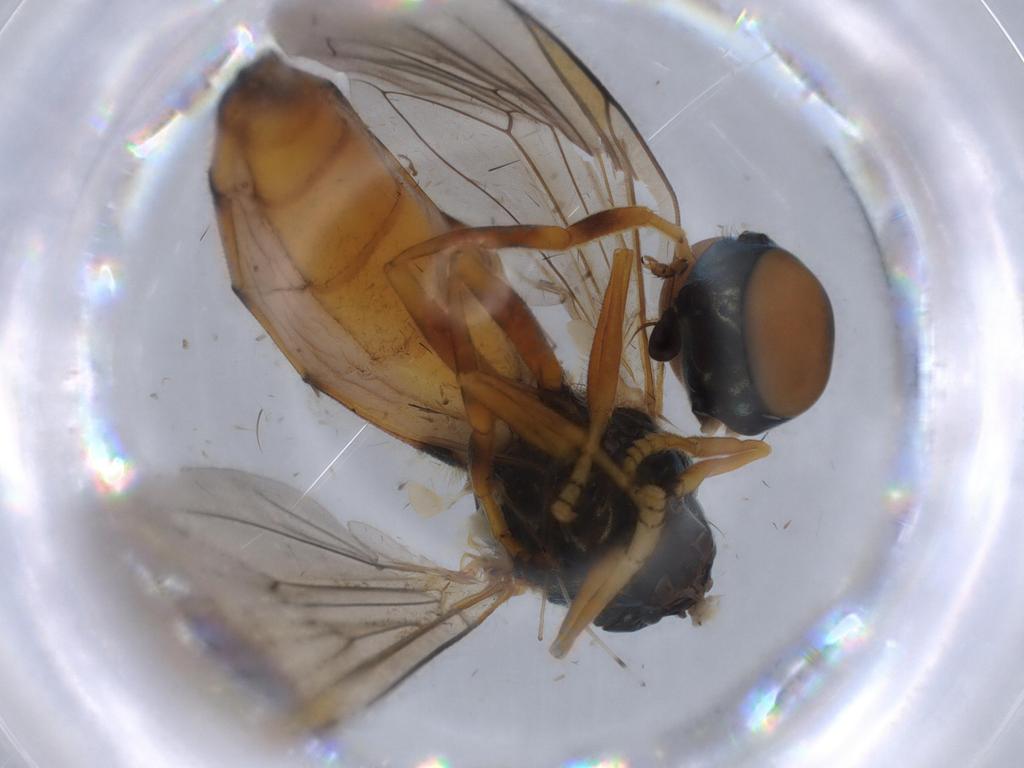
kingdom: Animalia
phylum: Arthropoda
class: Insecta
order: Diptera
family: Syrphidae
